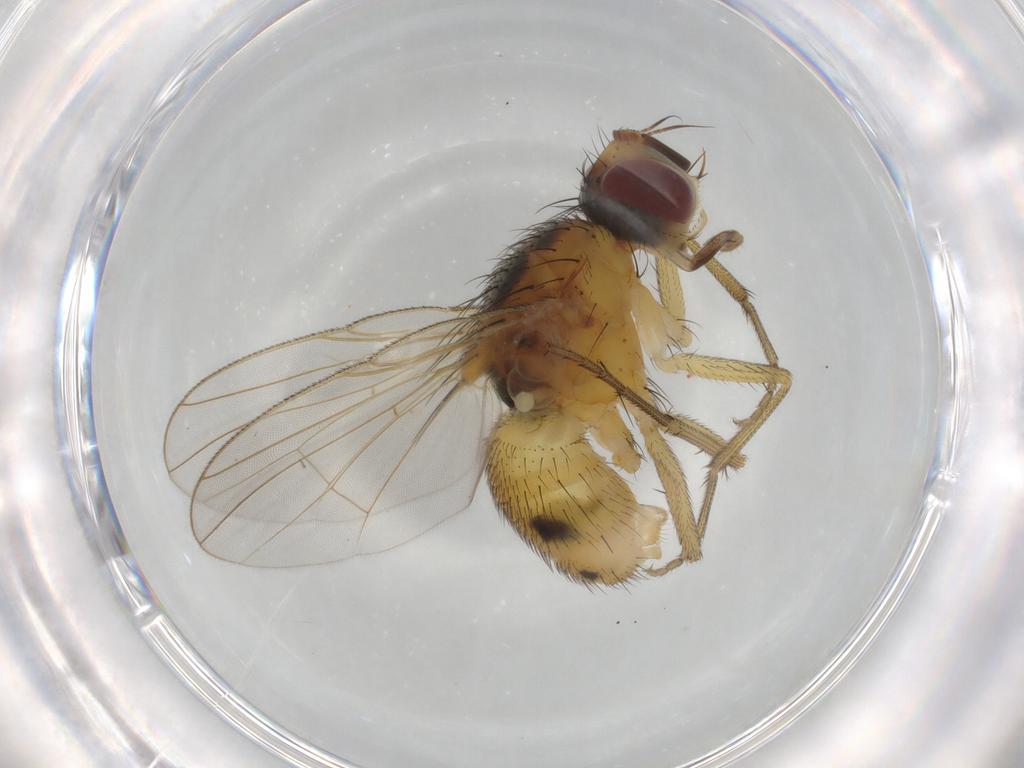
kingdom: Animalia
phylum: Arthropoda
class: Insecta
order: Diptera
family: Muscidae
